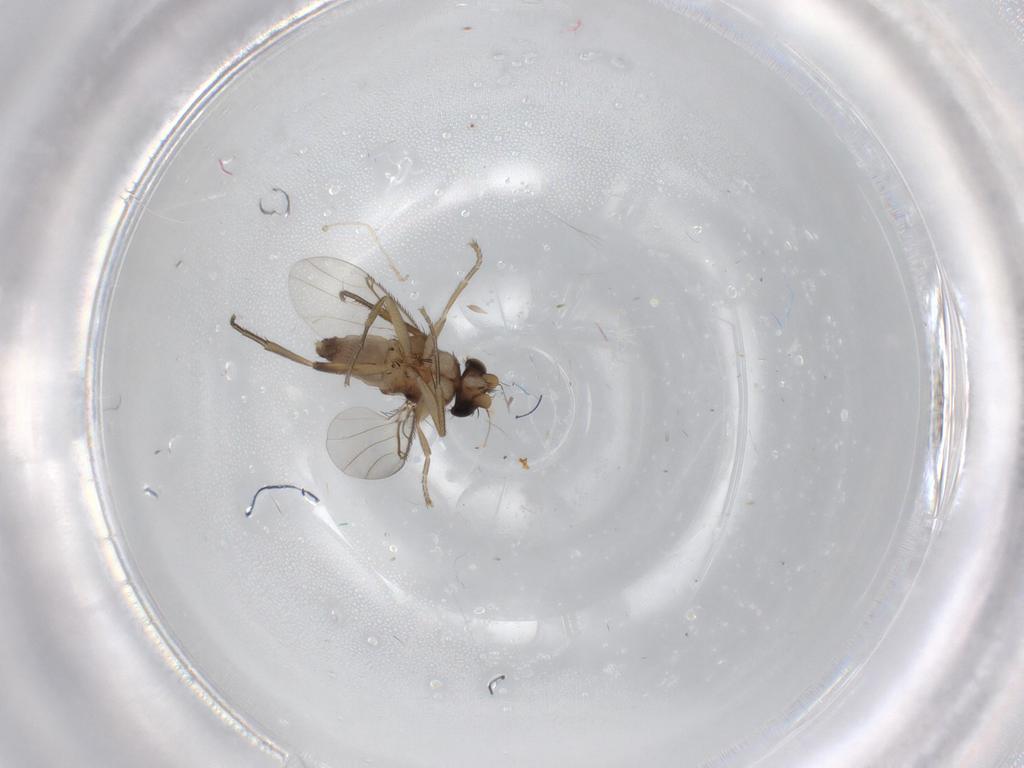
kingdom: Animalia
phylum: Arthropoda
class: Insecta
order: Diptera
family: Phoridae
